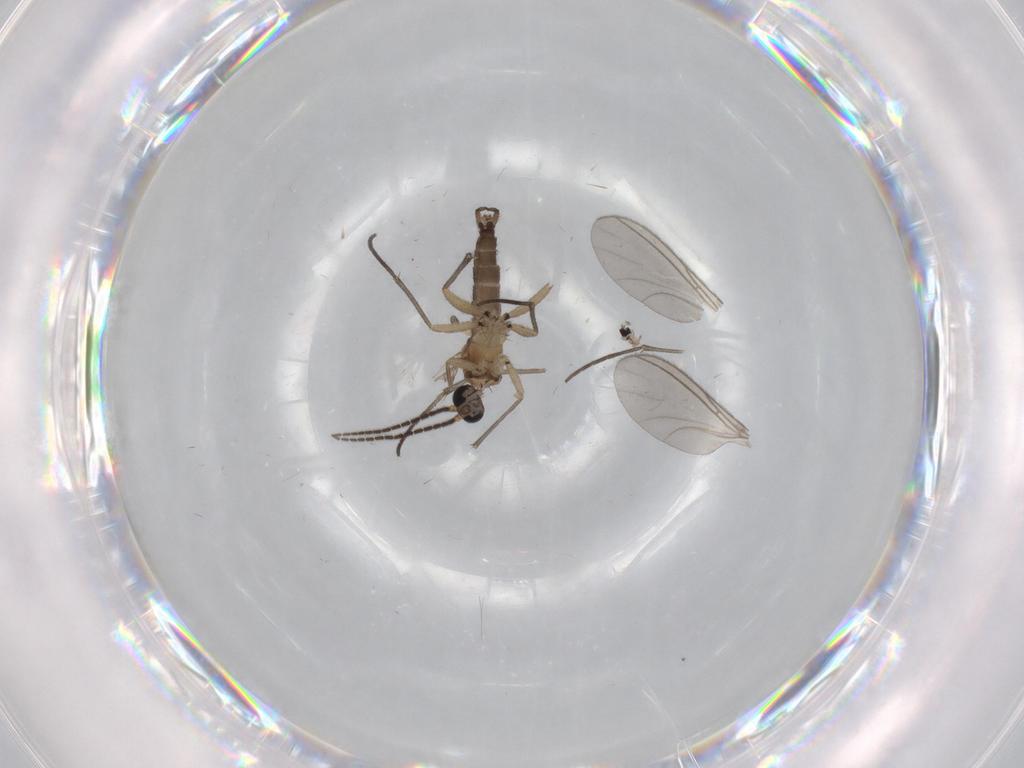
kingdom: Animalia
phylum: Arthropoda
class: Insecta
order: Diptera
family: Sciaridae
